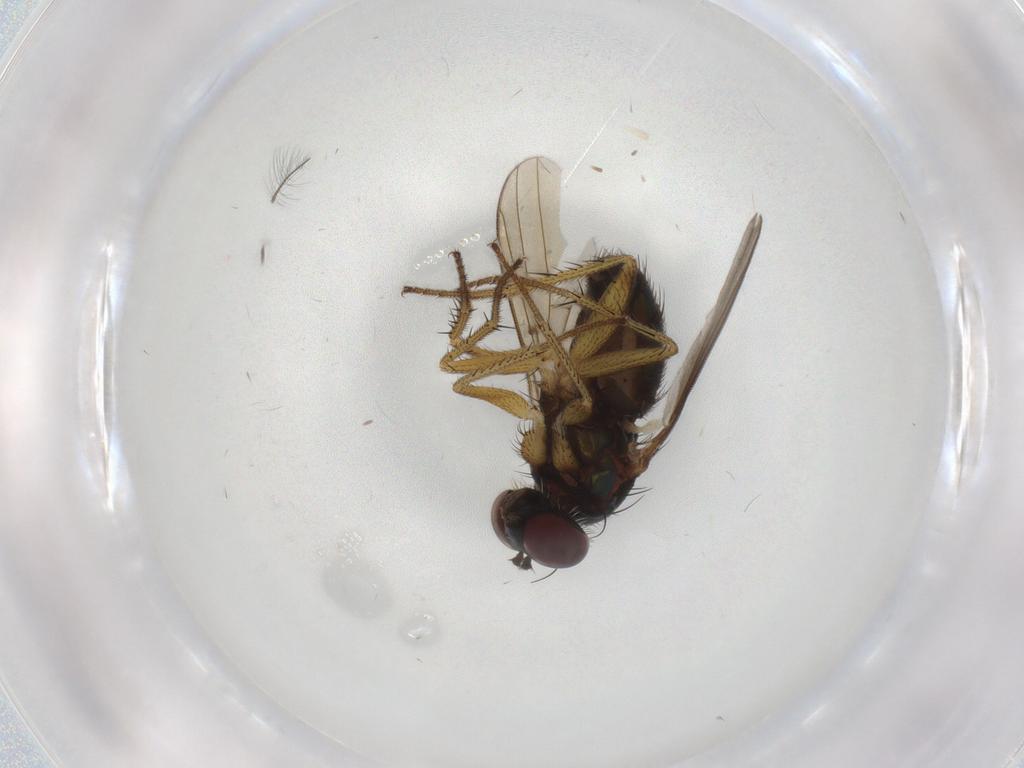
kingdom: Animalia
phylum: Arthropoda
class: Insecta
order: Diptera
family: Dolichopodidae
